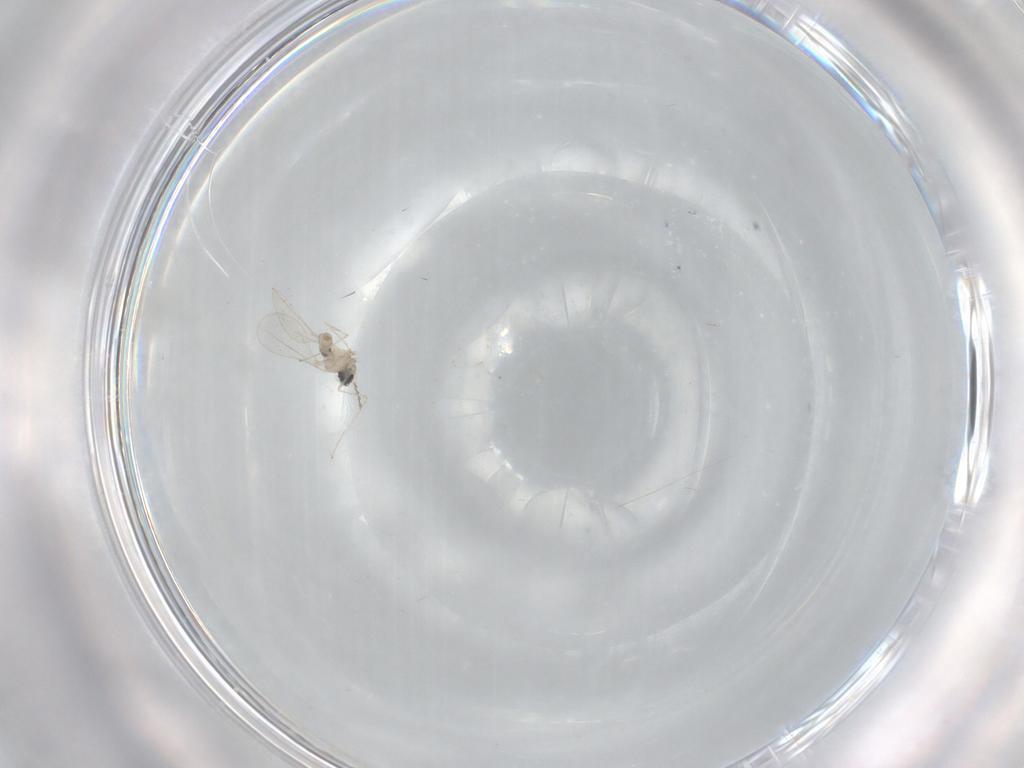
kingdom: Animalia
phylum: Arthropoda
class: Insecta
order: Diptera
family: Cecidomyiidae
